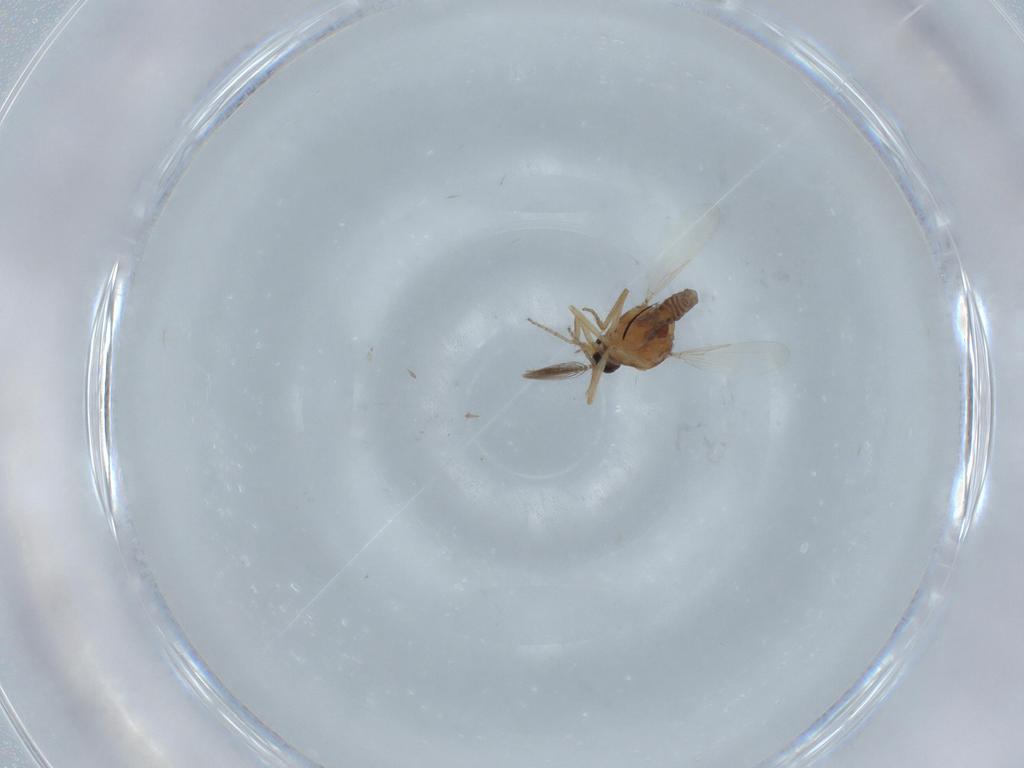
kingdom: Animalia
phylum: Arthropoda
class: Insecta
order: Diptera
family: Ceratopogonidae
